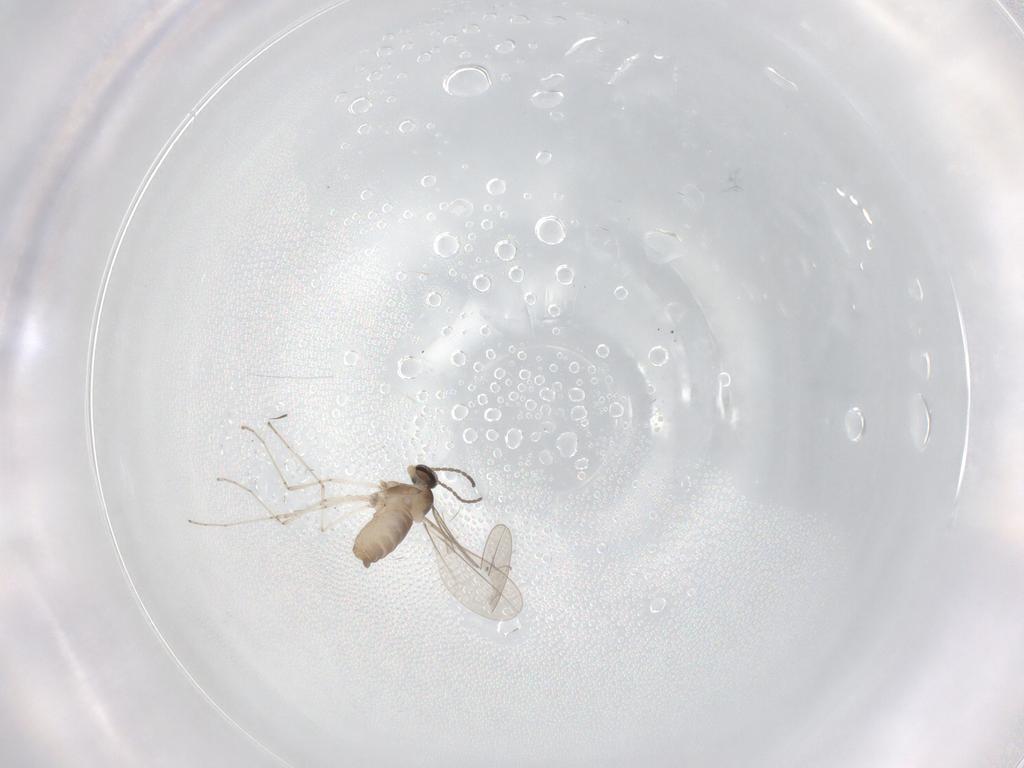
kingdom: Animalia
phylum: Arthropoda
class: Insecta
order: Diptera
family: Cecidomyiidae
